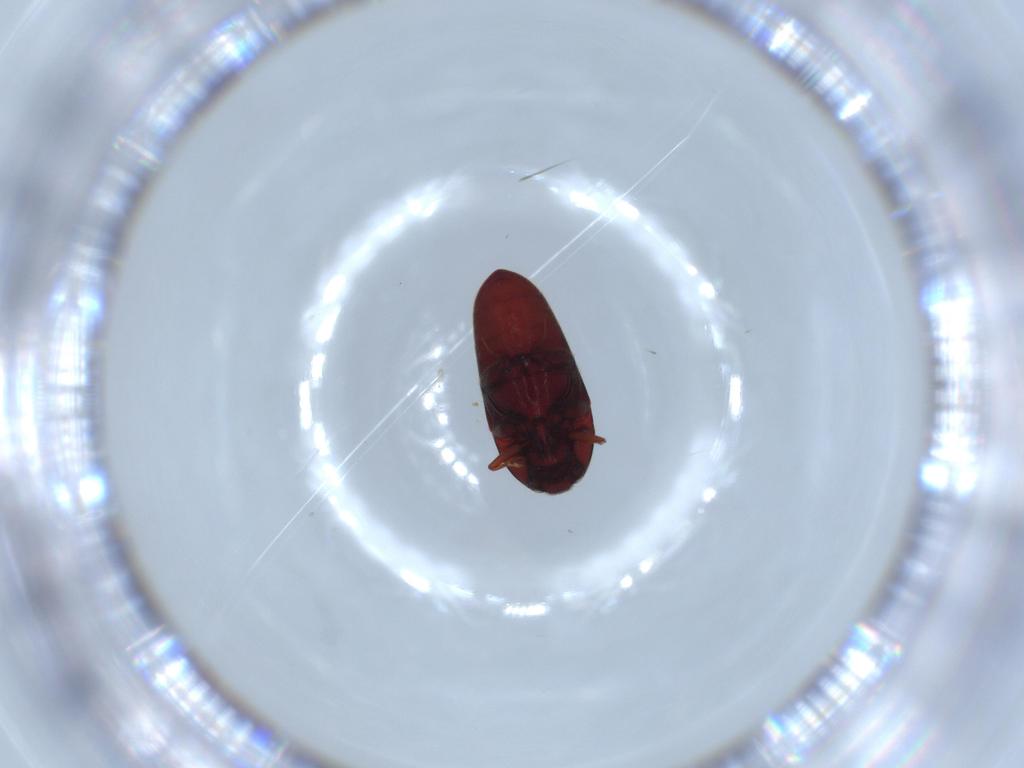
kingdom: Animalia
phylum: Arthropoda
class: Insecta
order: Coleoptera
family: Throscidae
